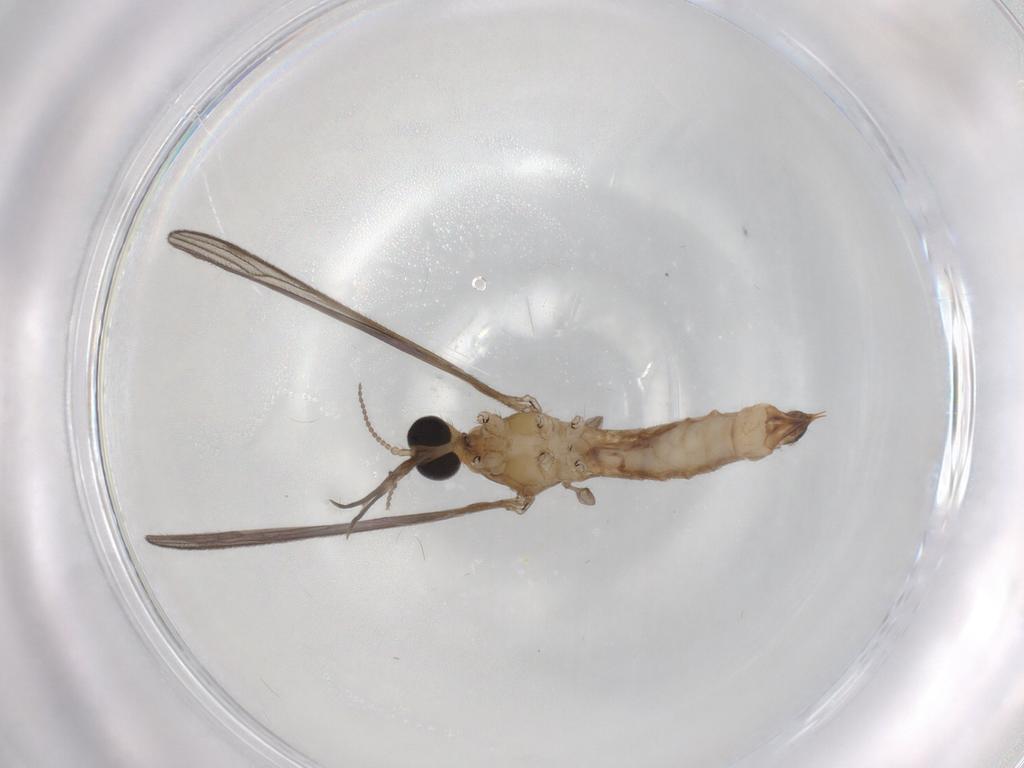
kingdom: Animalia
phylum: Arthropoda
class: Insecta
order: Diptera
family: Limoniidae
